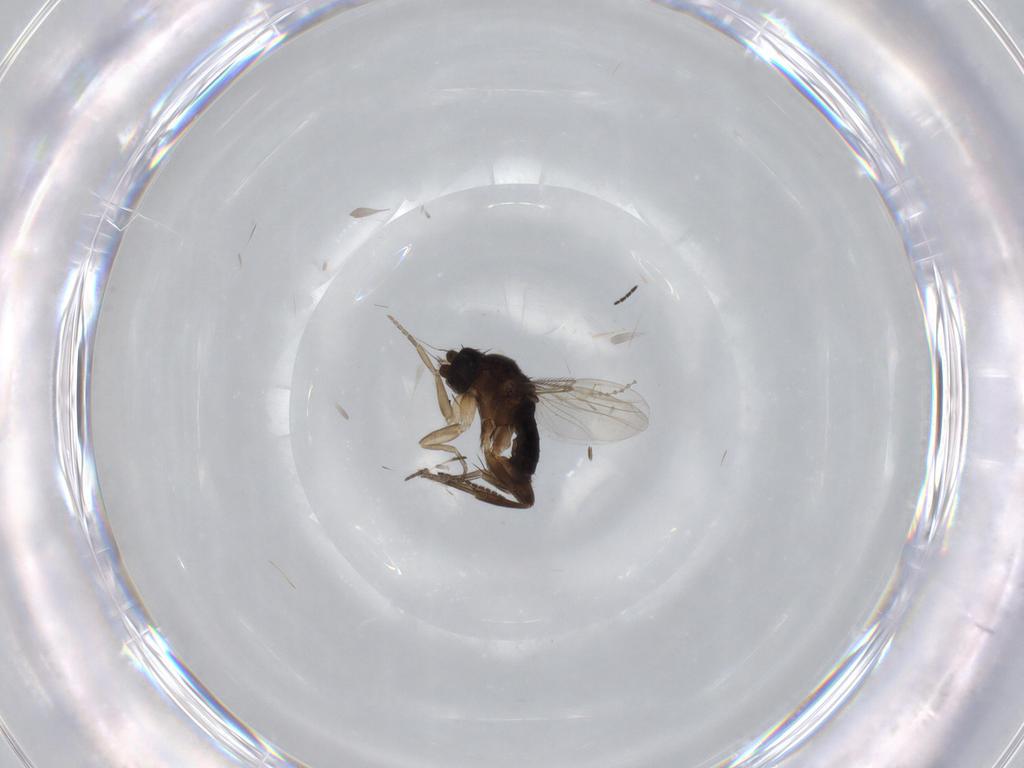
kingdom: Animalia
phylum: Arthropoda
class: Insecta
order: Diptera
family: Phoridae
